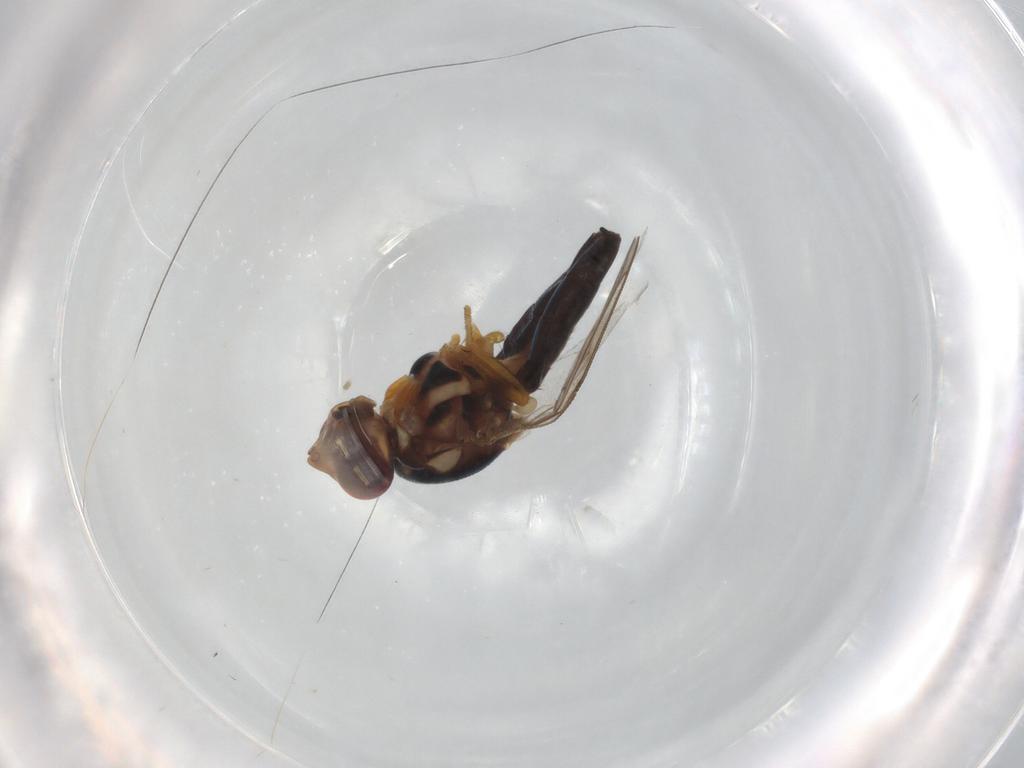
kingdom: Animalia
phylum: Arthropoda
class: Insecta
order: Diptera
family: Chloropidae
